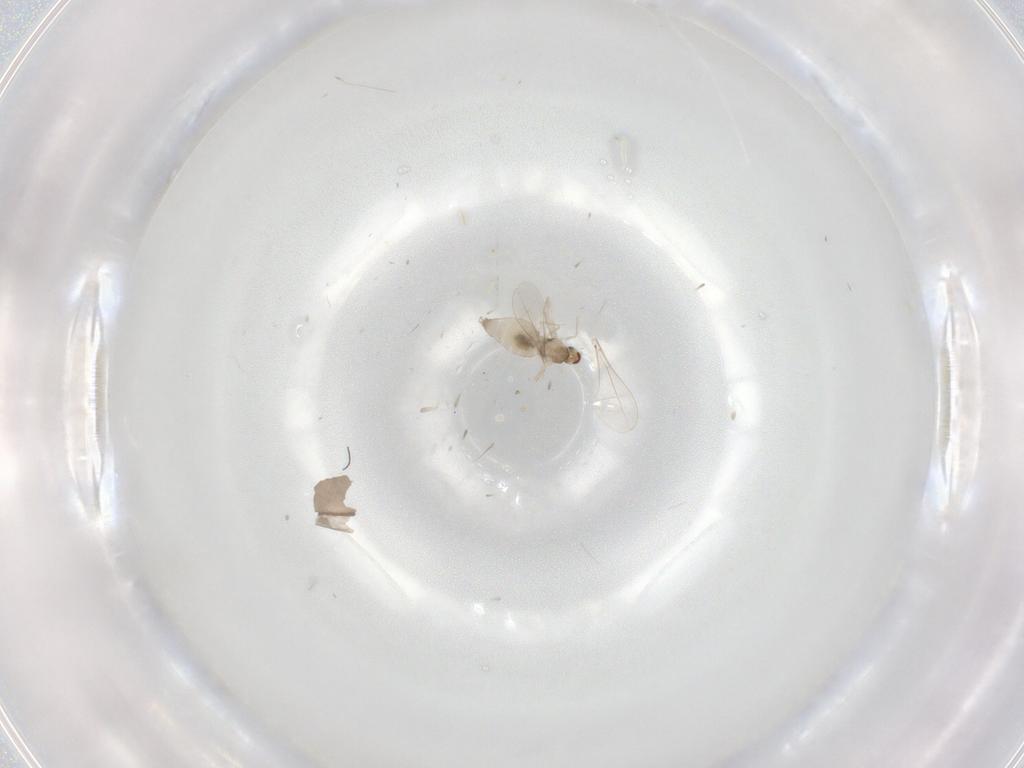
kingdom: Animalia
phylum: Arthropoda
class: Insecta
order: Diptera
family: Cecidomyiidae
